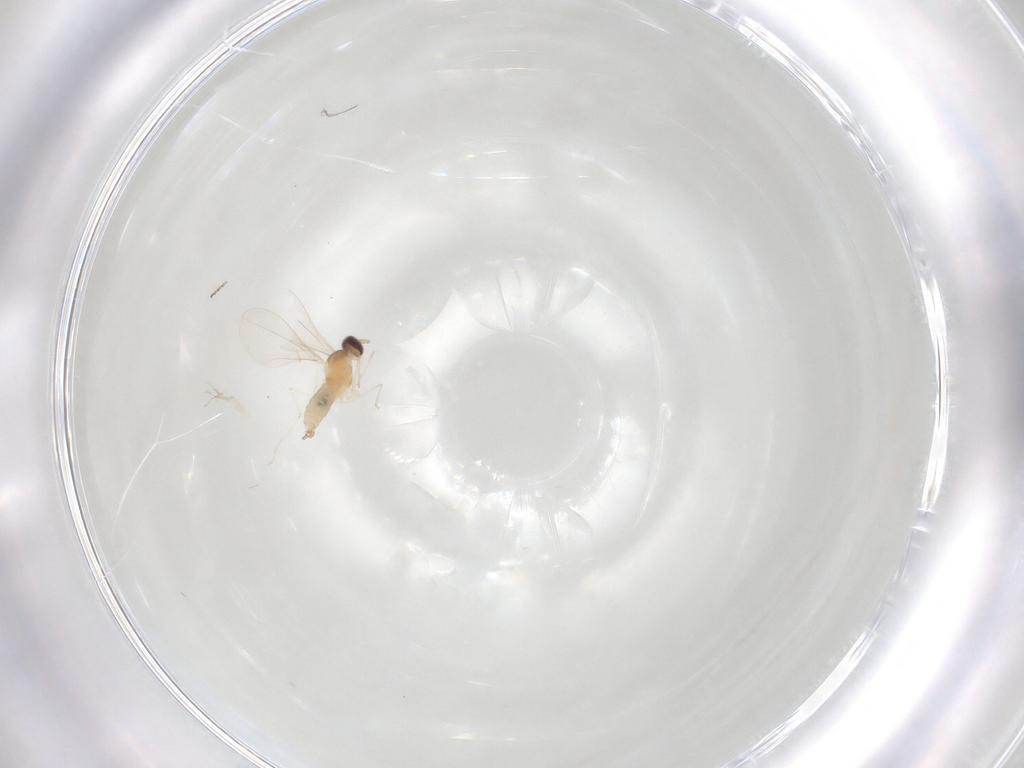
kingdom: Animalia
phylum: Arthropoda
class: Insecta
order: Diptera
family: Cecidomyiidae
